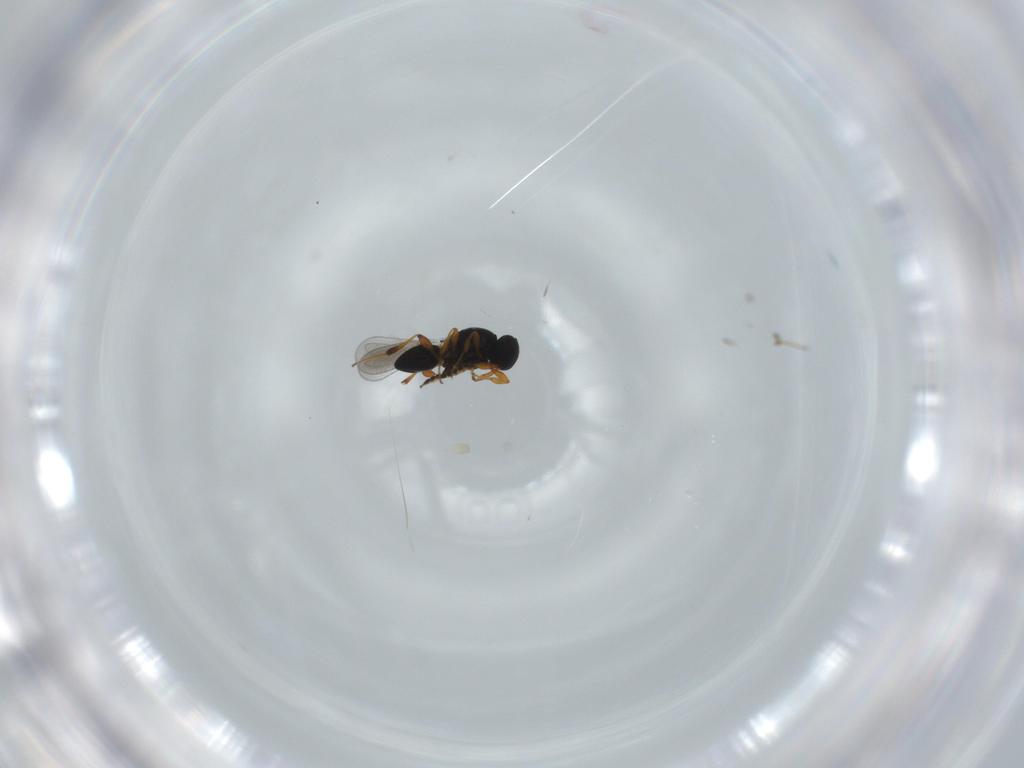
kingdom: Animalia
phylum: Arthropoda
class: Insecta
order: Hymenoptera
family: Platygastridae
